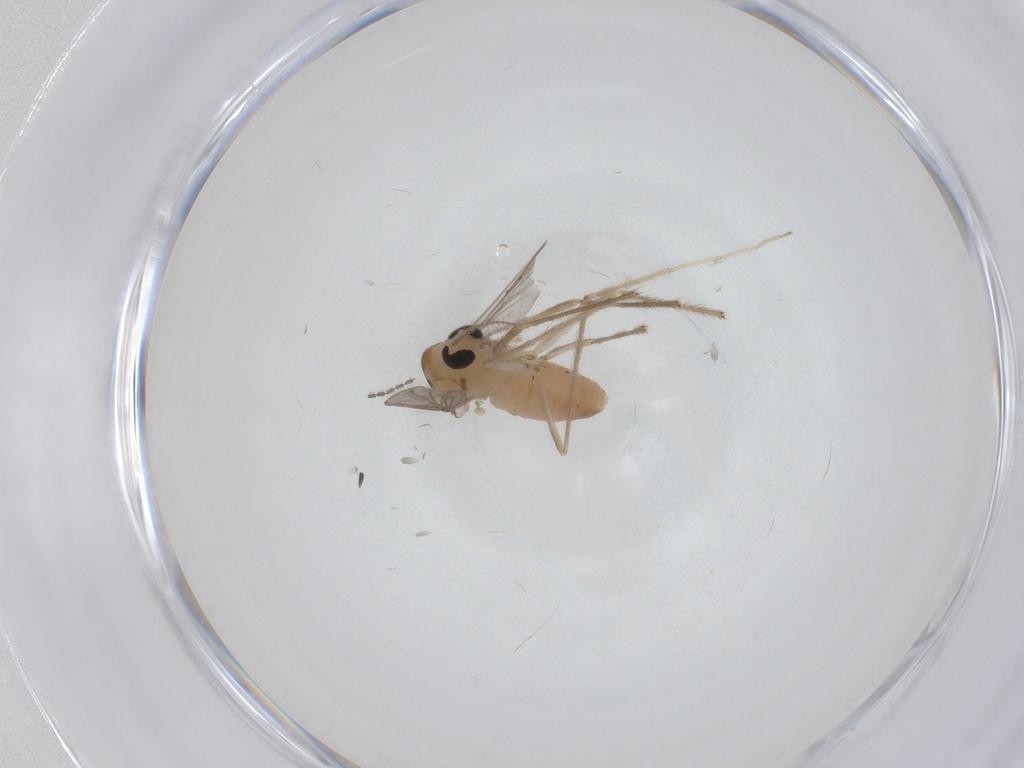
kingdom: Animalia
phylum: Arthropoda
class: Insecta
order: Diptera
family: Chironomidae
